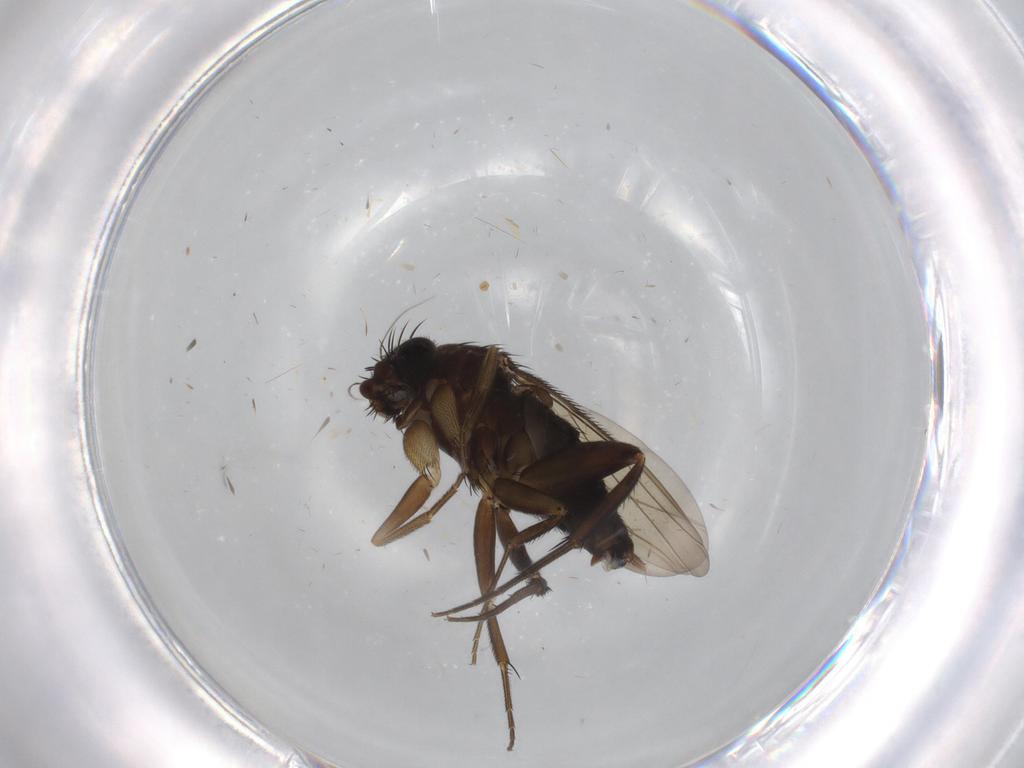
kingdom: Animalia
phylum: Arthropoda
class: Insecta
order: Diptera
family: Phoridae
